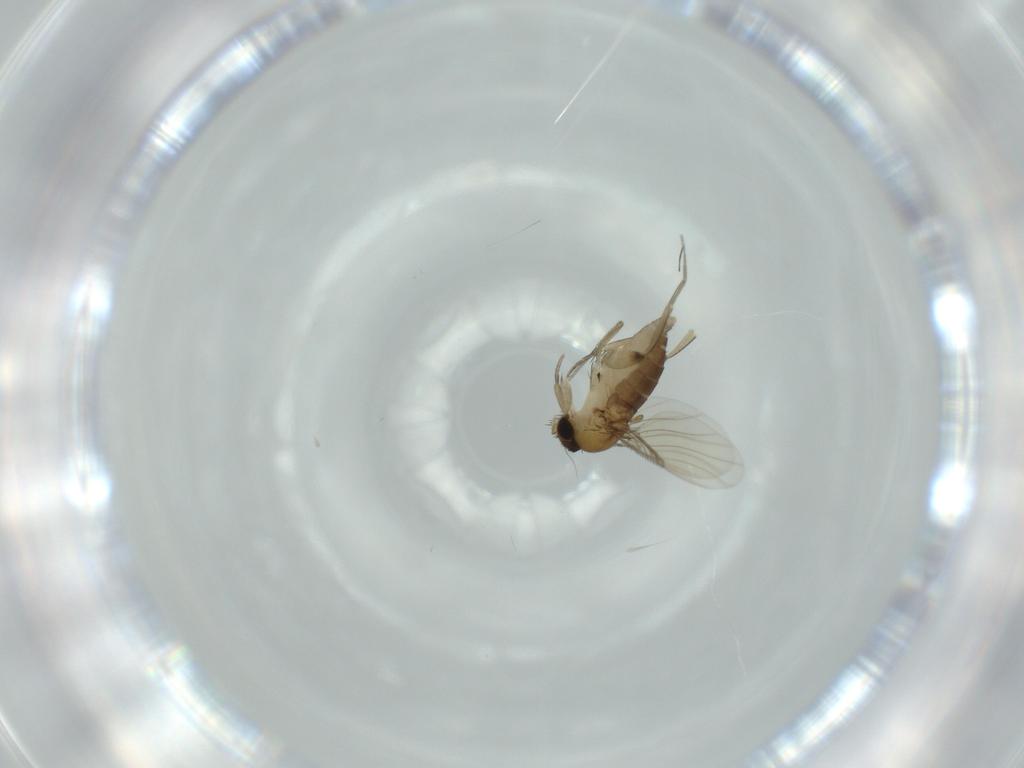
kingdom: Animalia
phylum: Arthropoda
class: Insecta
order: Diptera
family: Phoridae
